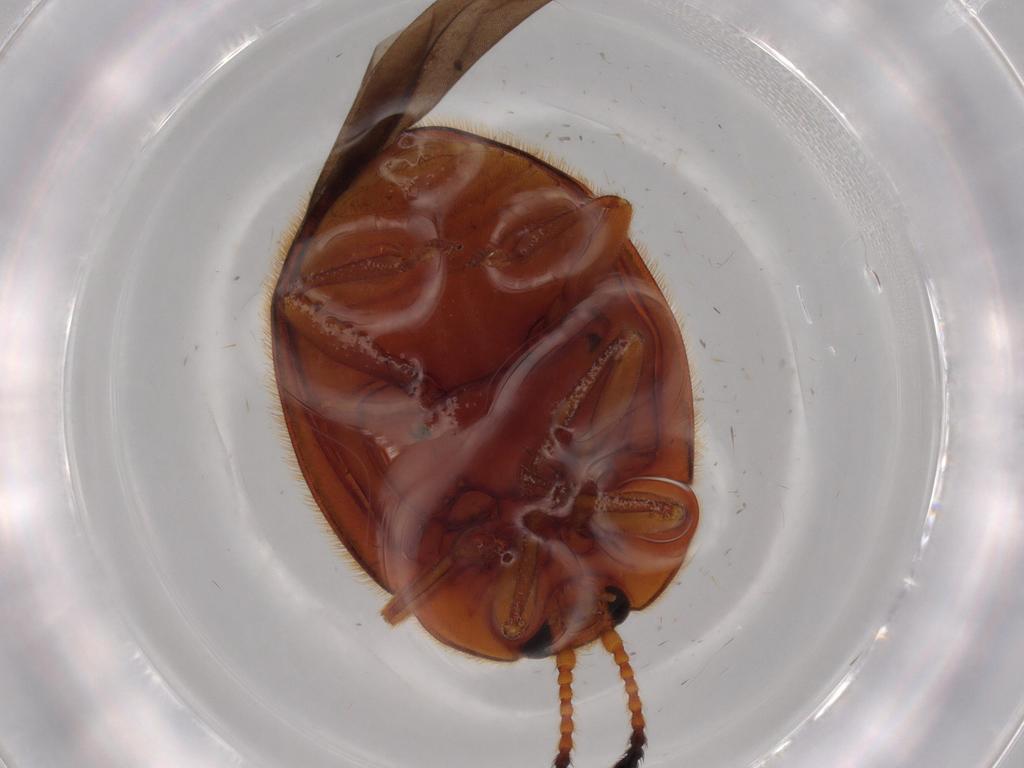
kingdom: Animalia
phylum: Arthropoda
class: Insecta
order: Coleoptera
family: Endomychidae
